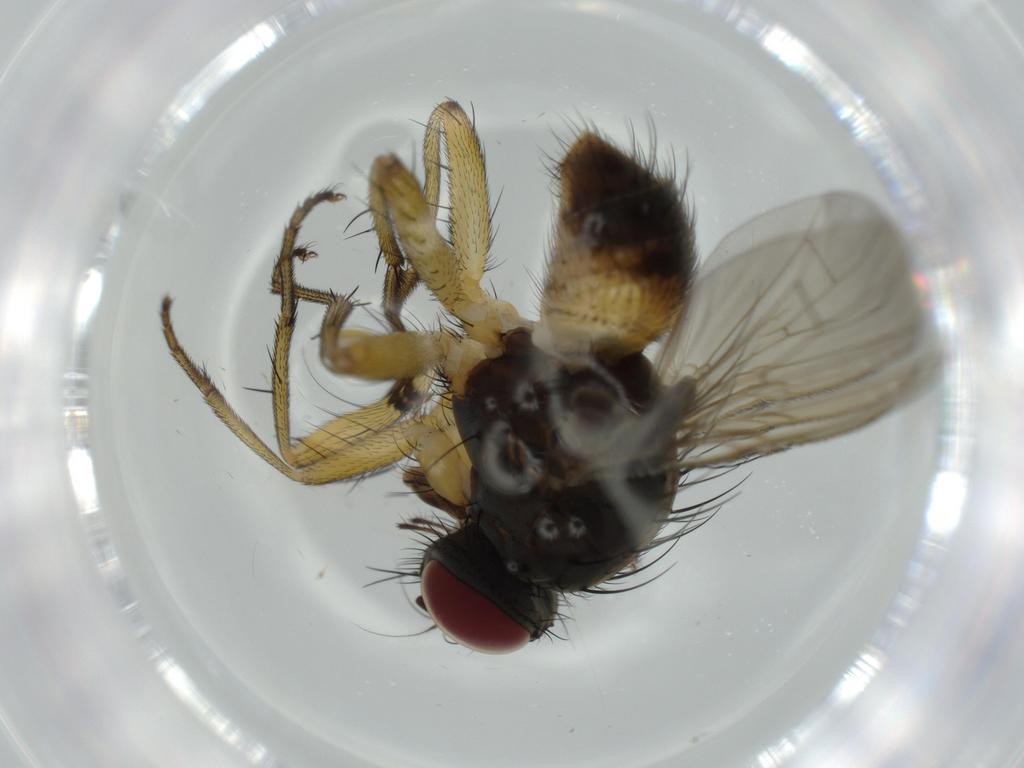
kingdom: Animalia
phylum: Arthropoda
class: Insecta
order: Diptera
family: Muscidae
